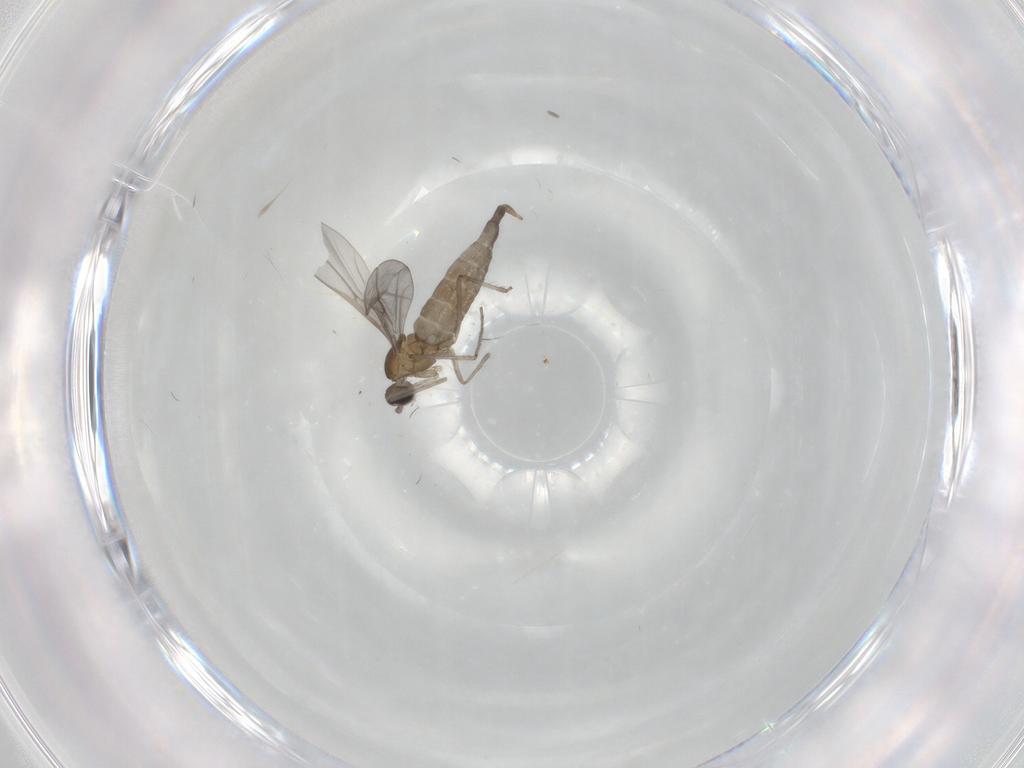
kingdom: Animalia
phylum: Arthropoda
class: Insecta
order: Diptera
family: Cecidomyiidae
